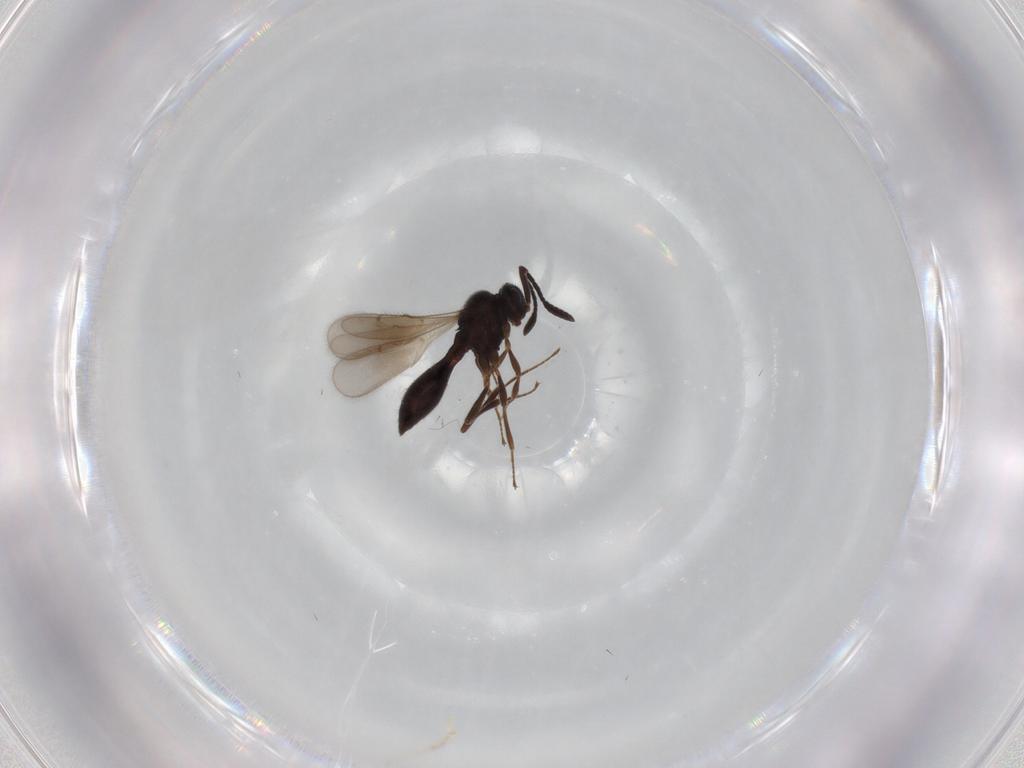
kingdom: Animalia
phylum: Arthropoda
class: Insecta
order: Hymenoptera
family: Scelionidae
